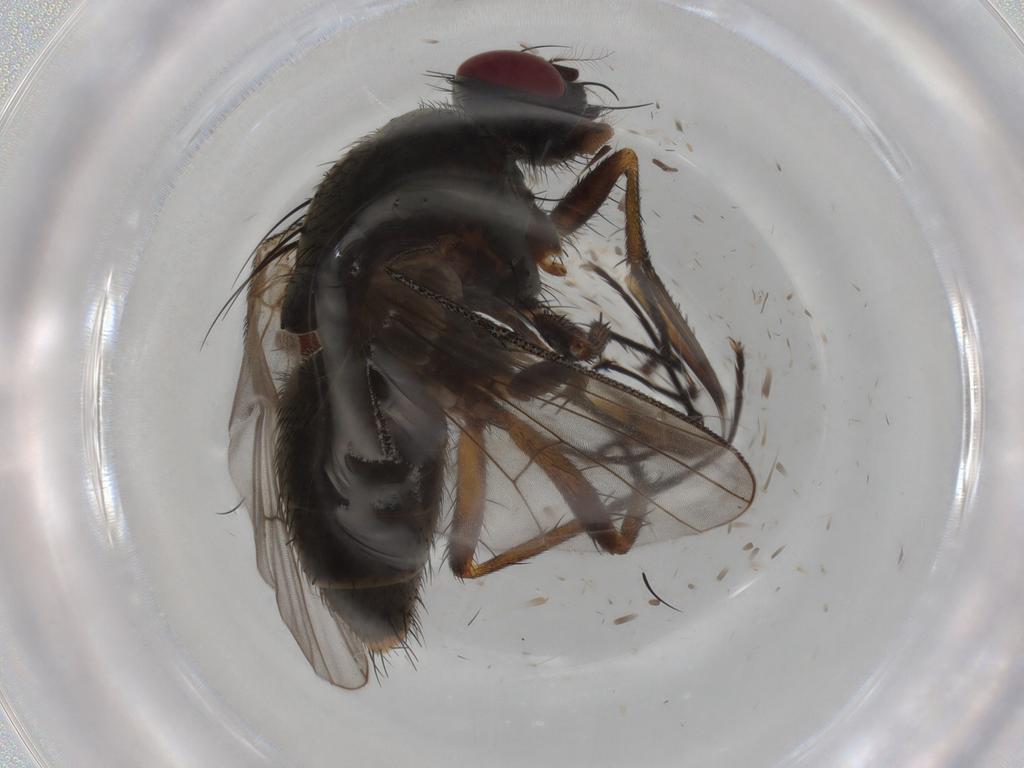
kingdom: Animalia
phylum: Arthropoda
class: Insecta
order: Diptera
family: Muscidae
